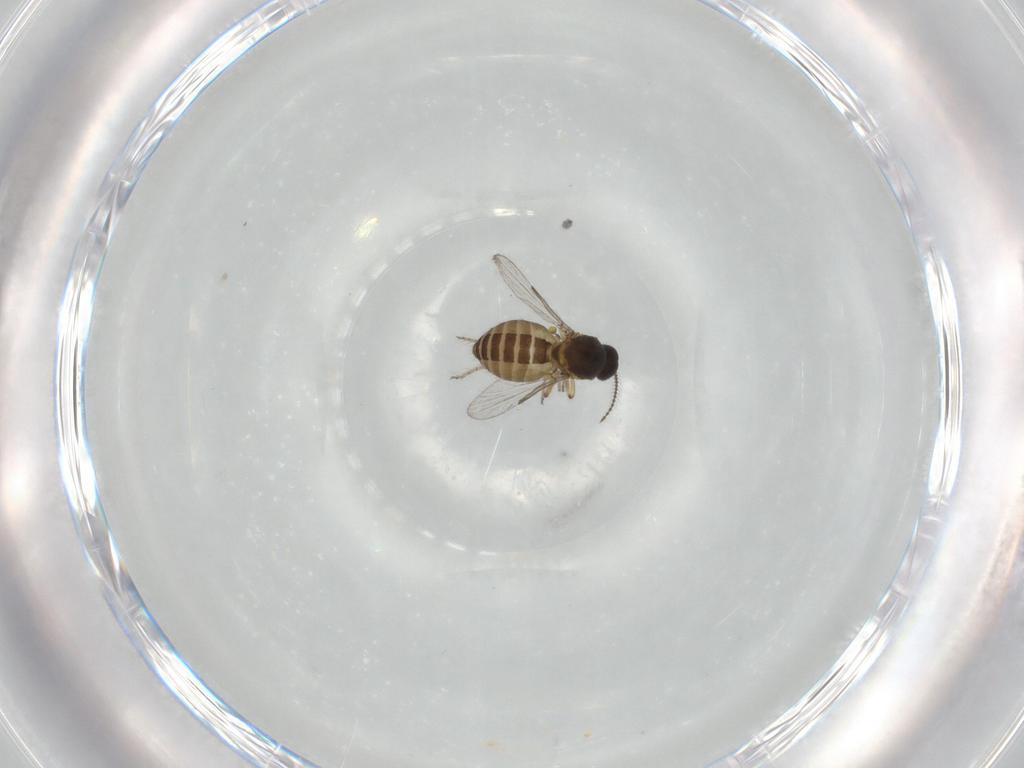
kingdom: Animalia
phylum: Arthropoda
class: Insecta
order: Diptera
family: Ceratopogonidae
